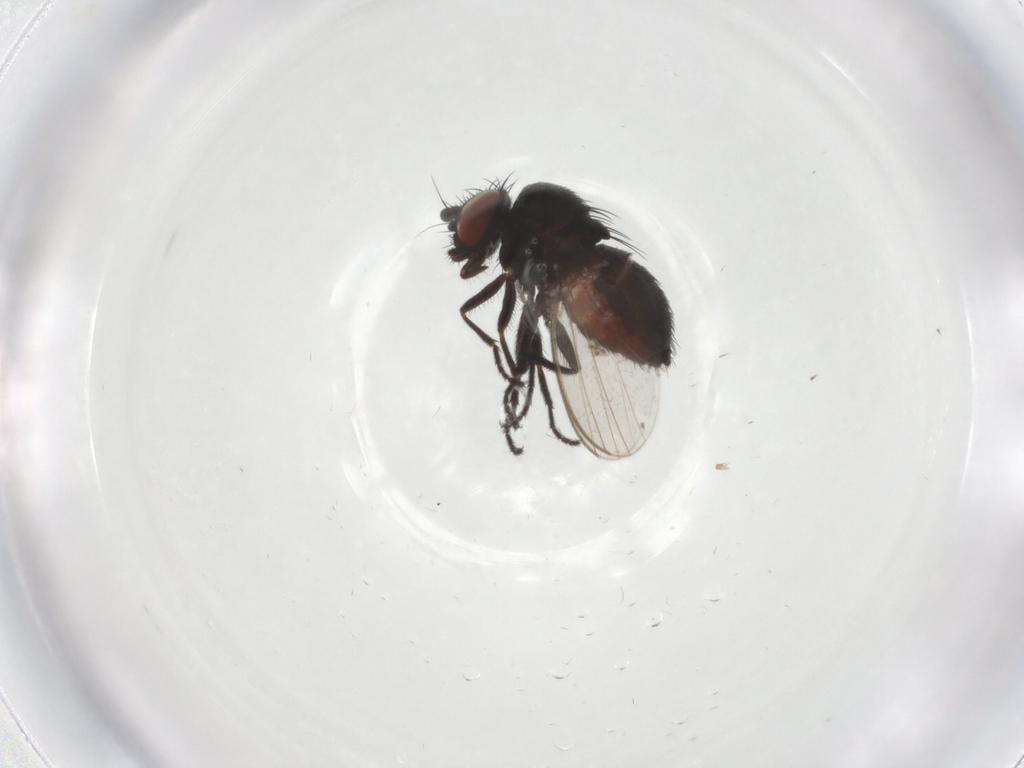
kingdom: Animalia
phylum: Arthropoda
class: Insecta
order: Diptera
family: Milichiidae
